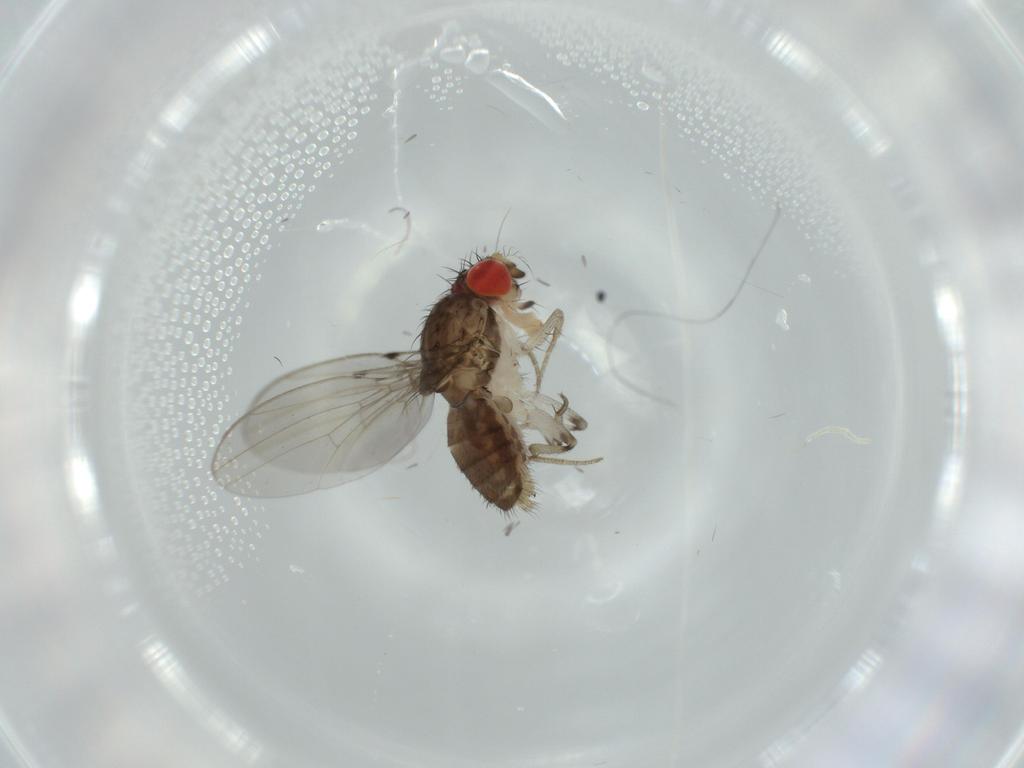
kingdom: Animalia
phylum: Arthropoda
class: Insecta
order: Diptera
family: Drosophilidae
